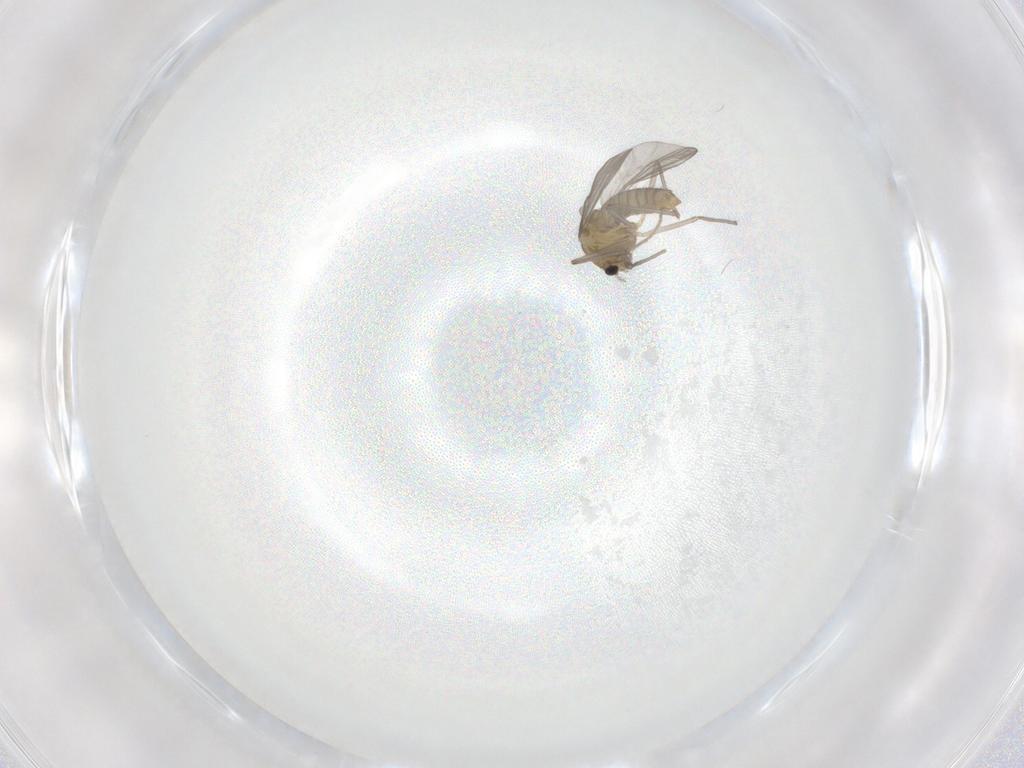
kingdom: Animalia
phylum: Arthropoda
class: Insecta
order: Diptera
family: Chironomidae
